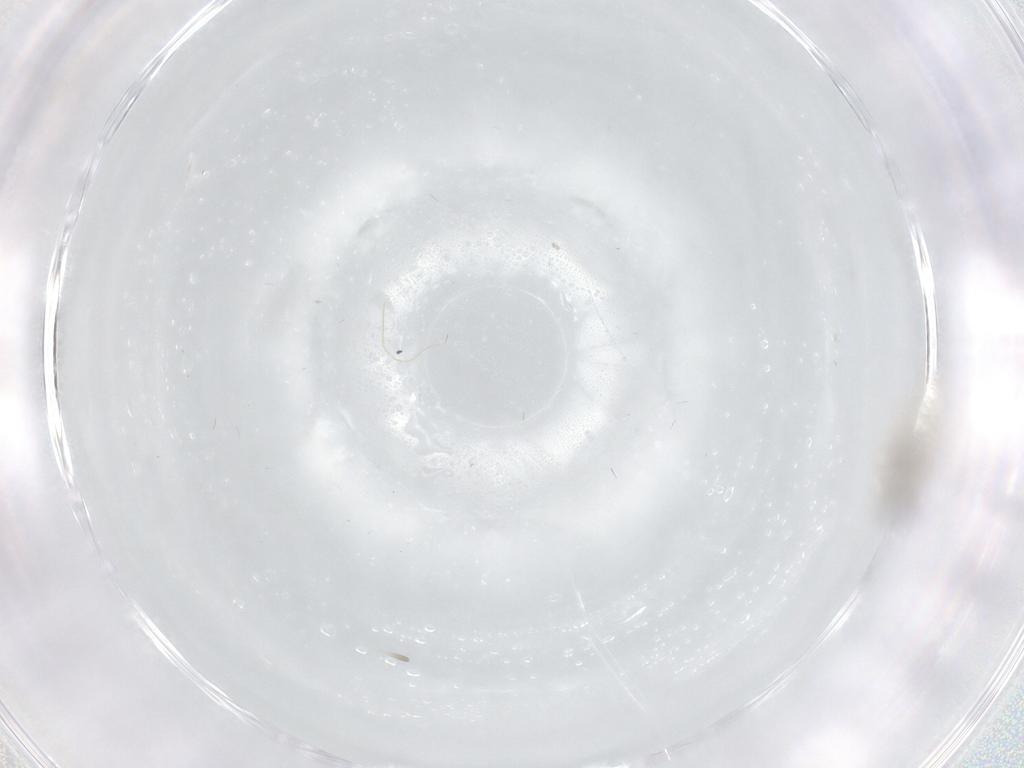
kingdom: Animalia
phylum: Arthropoda
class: Insecta
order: Diptera
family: Cecidomyiidae
